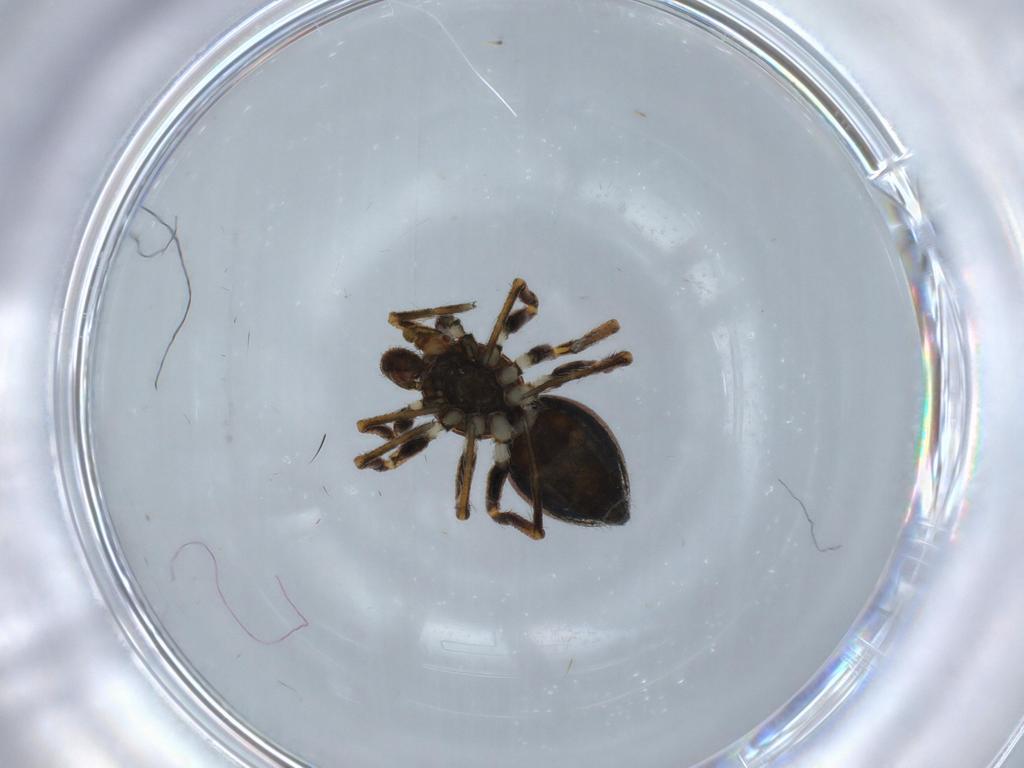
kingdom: Animalia
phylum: Arthropoda
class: Arachnida
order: Araneae
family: Theridiidae
